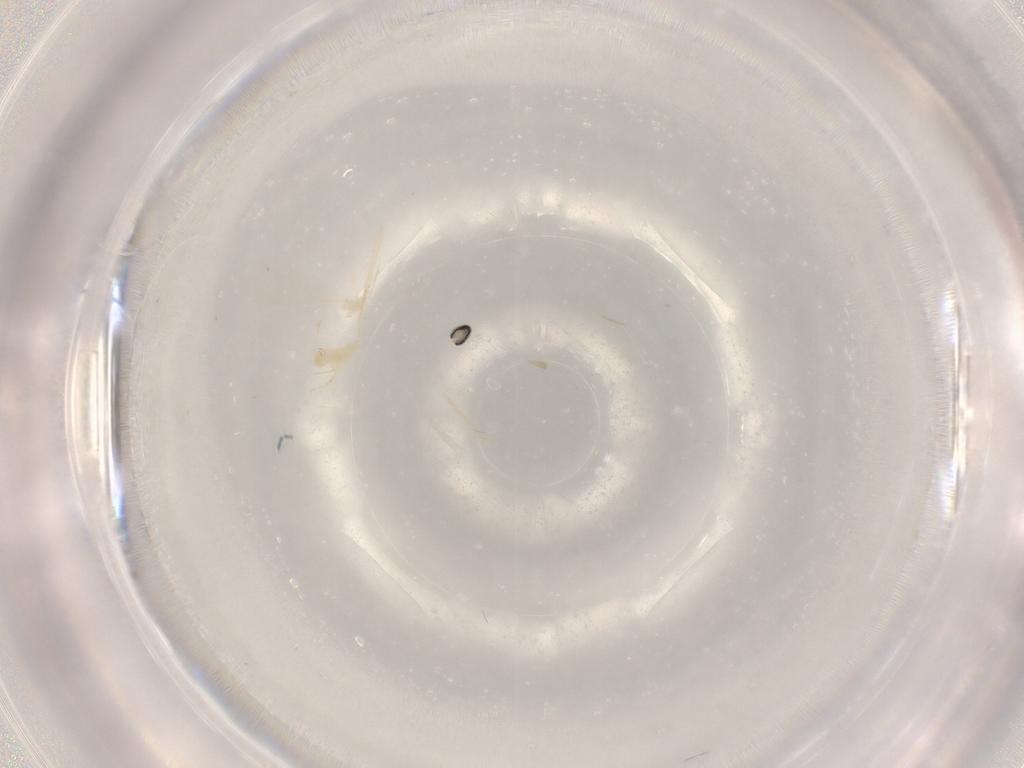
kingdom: Animalia
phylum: Arthropoda
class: Insecta
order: Diptera
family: Cecidomyiidae
